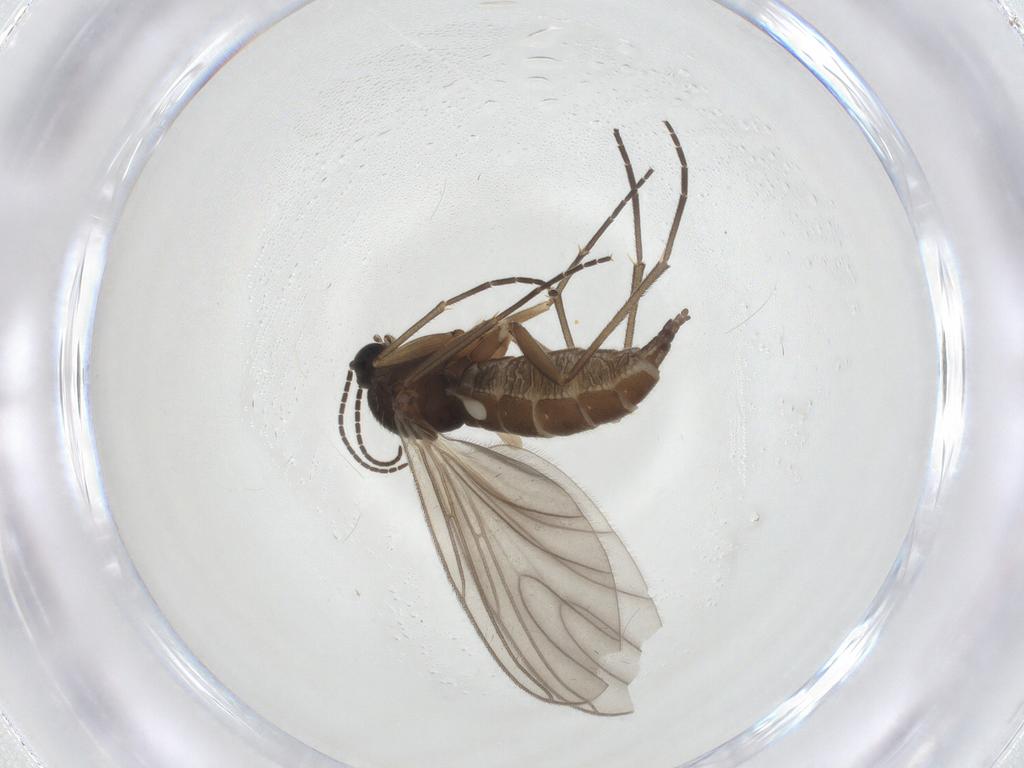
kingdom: Animalia
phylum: Arthropoda
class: Insecta
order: Diptera
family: Sciaridae
